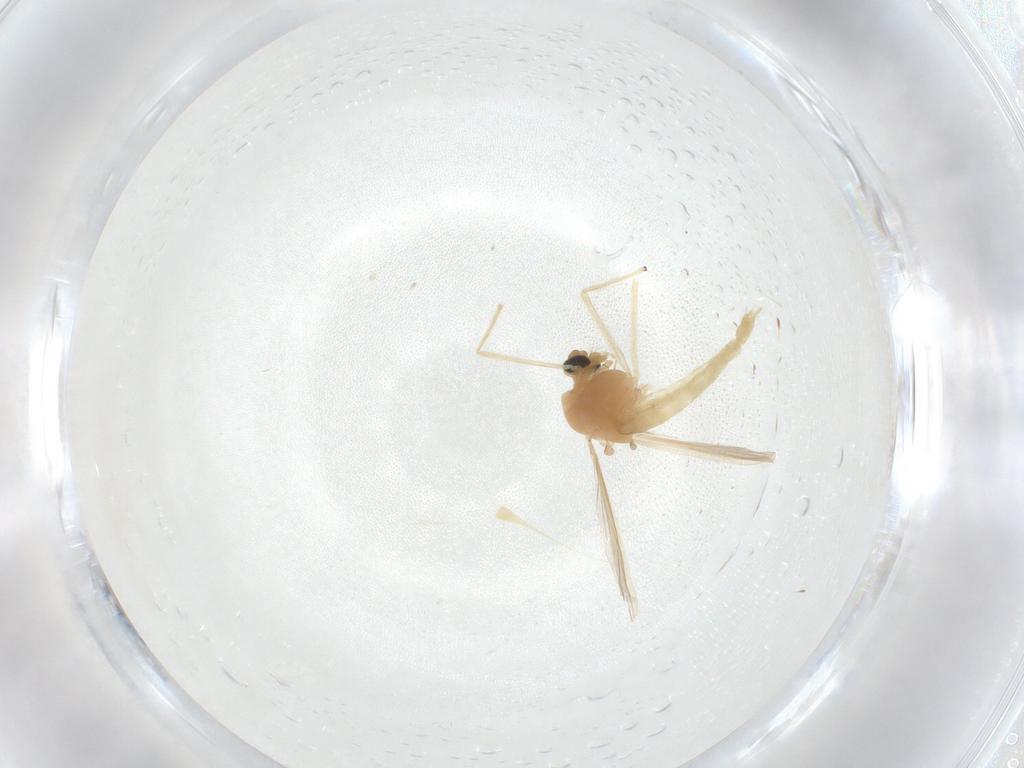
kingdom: Animalia
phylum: Arthropoda
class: Insecta
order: Diptera
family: Chironomidae
